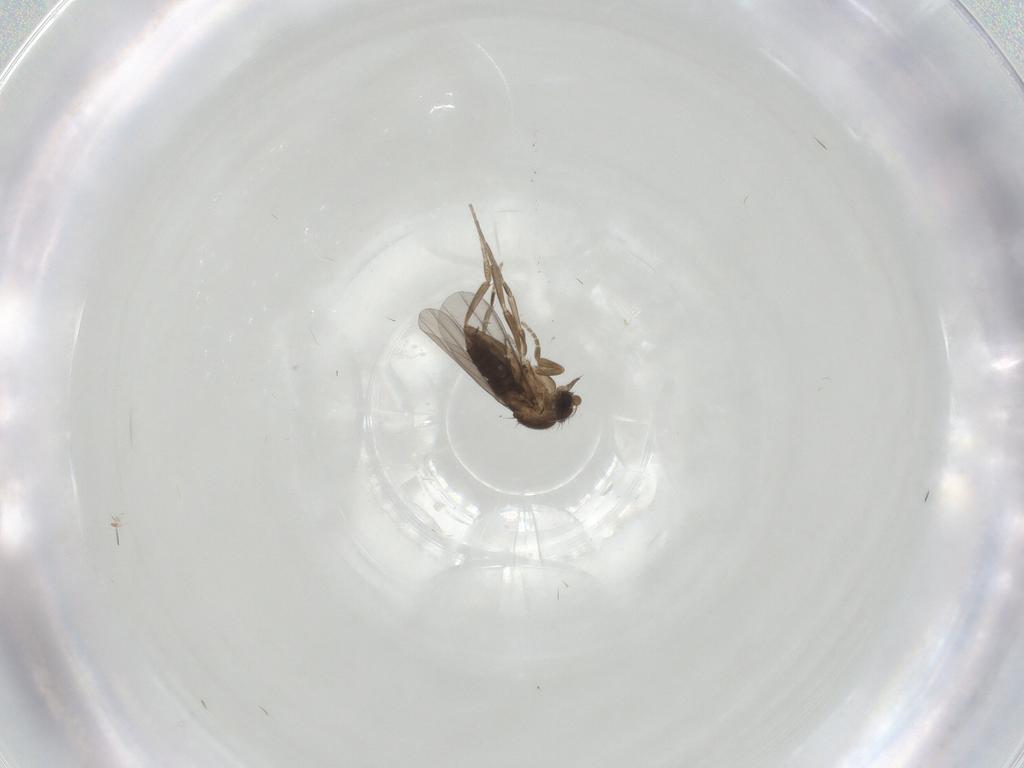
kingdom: Animalia
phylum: Arthropoda
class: Insecta
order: Diptera
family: Phoridae
